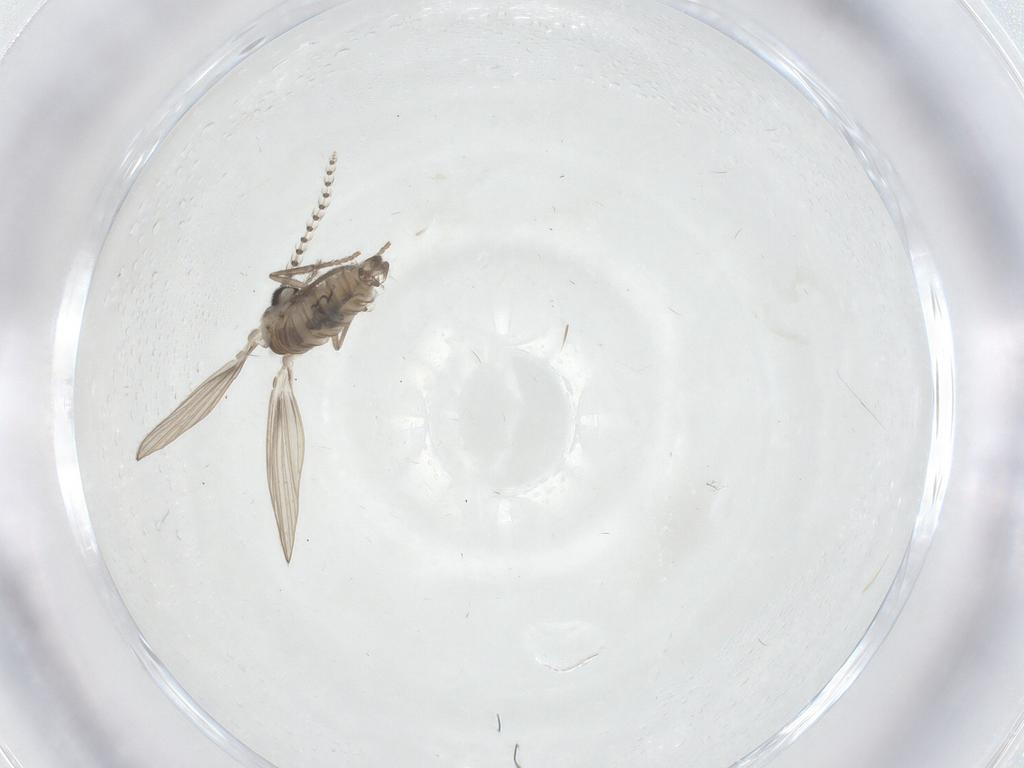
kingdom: Animalia
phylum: Arthropoda
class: Insecta
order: Diptera
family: Psychodidae
